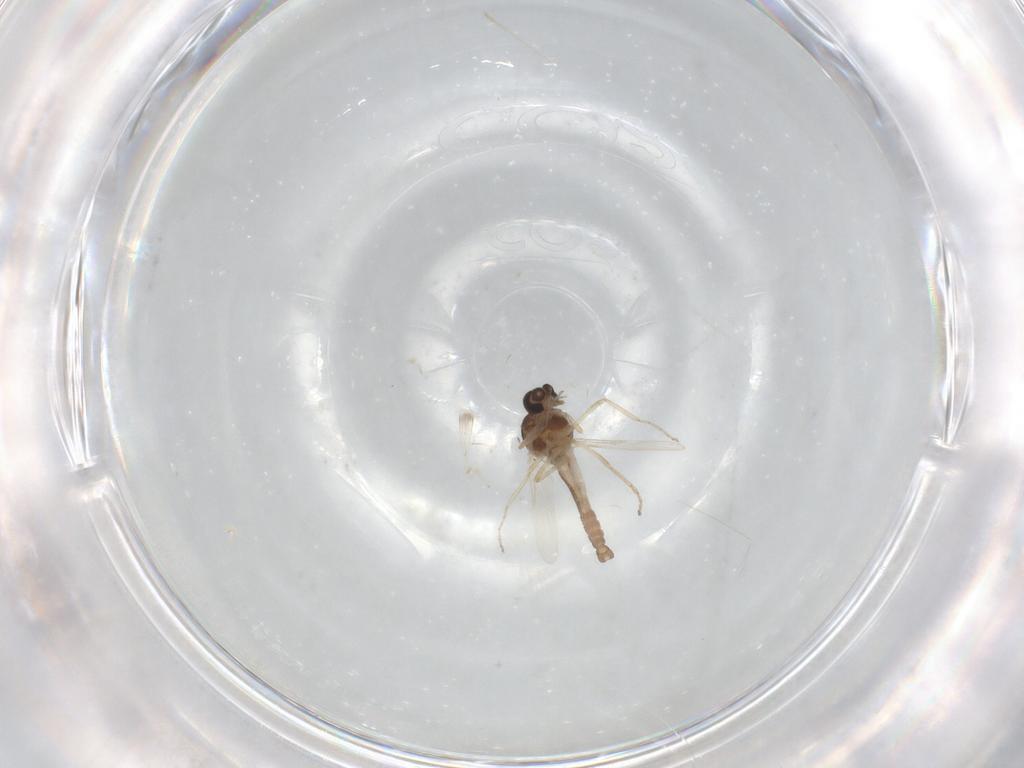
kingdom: Animalia
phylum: Arthropoda
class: Insecta
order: Diptera
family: Ceratopogonidae
